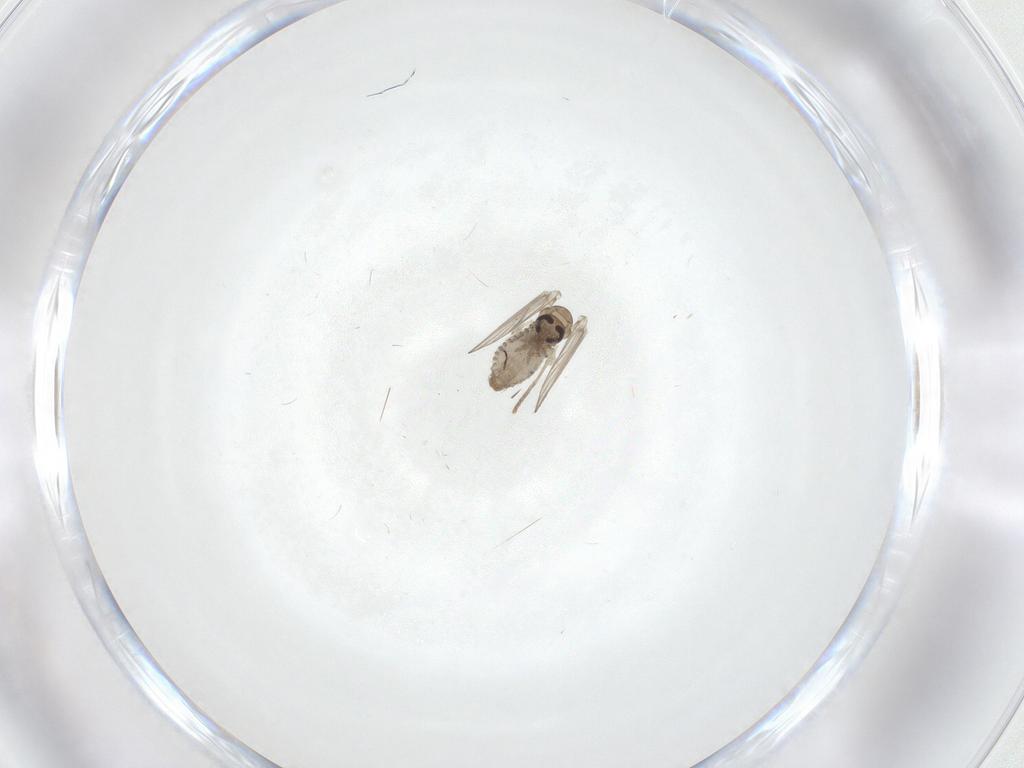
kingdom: Animalia
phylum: Arthropoda
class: Insecta
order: Diptera
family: Psychodidae
